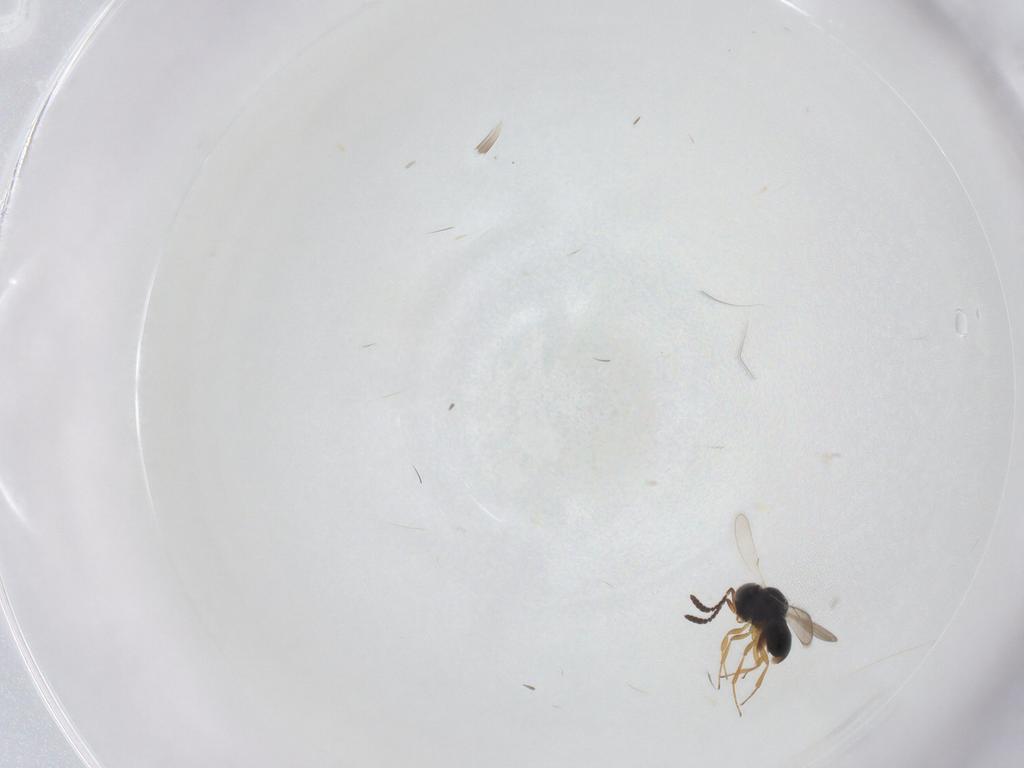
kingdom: Animalia
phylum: Arthropoda
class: Insecta
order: Hymenoptera
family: Scelionidae
